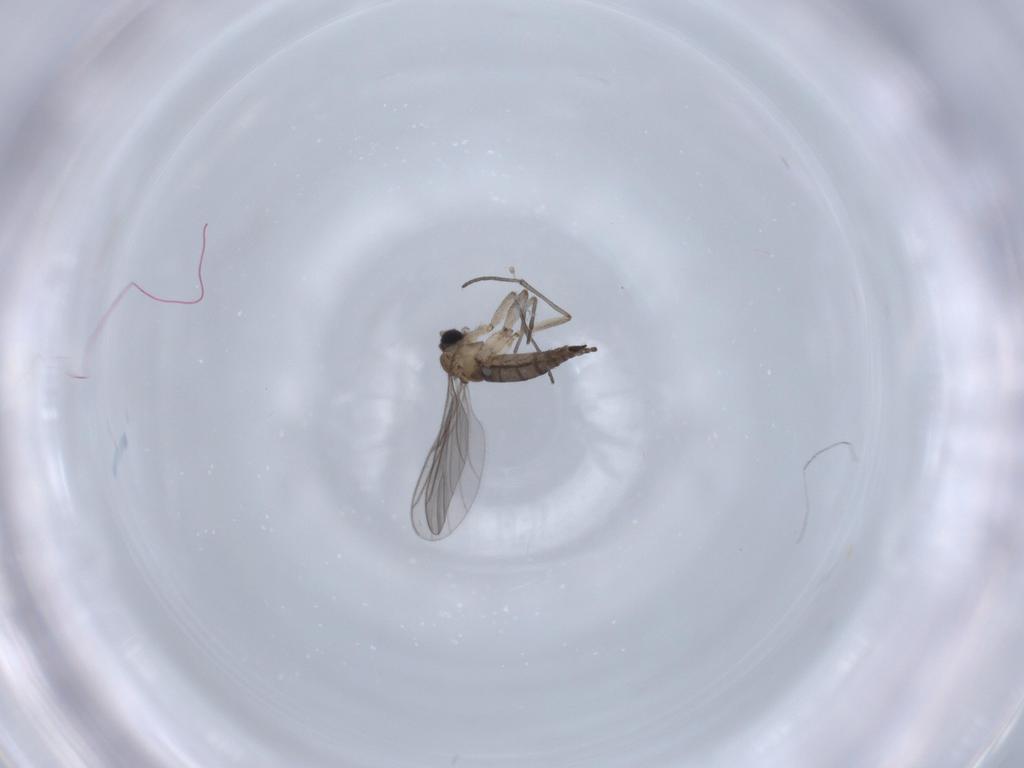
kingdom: Animalia
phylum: Arthropoda
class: Insecta
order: Diptera
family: Sciaridae
